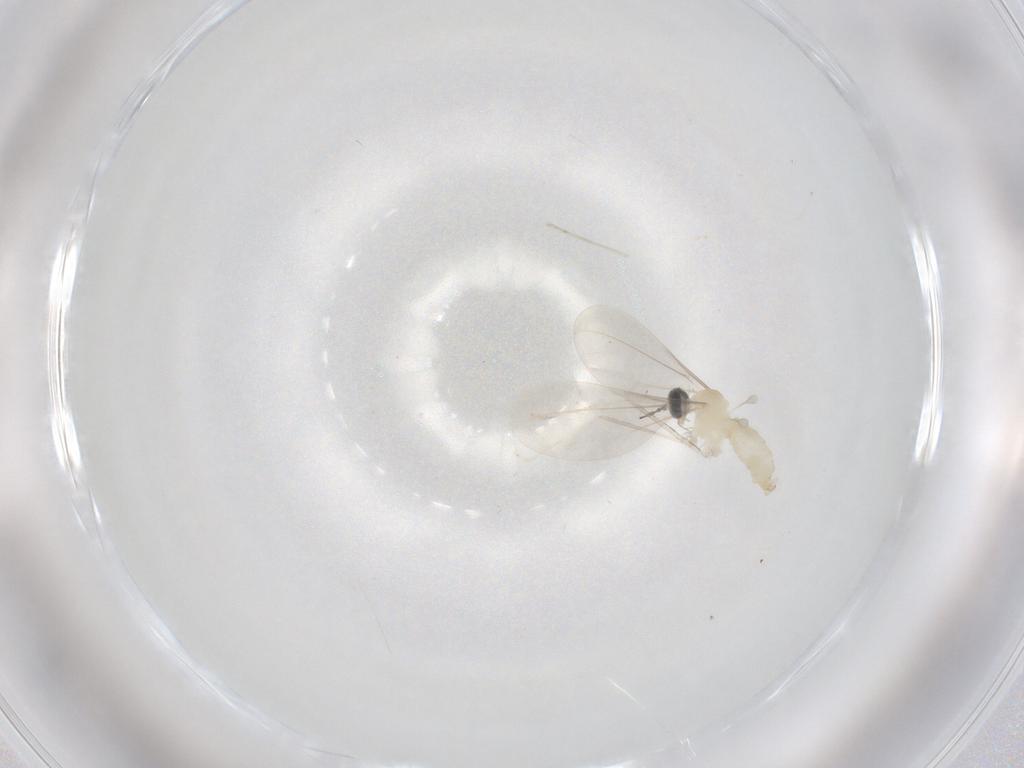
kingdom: Animalia
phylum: Arthropoda
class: Insecta
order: Diptera
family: Cecidomyiidae
